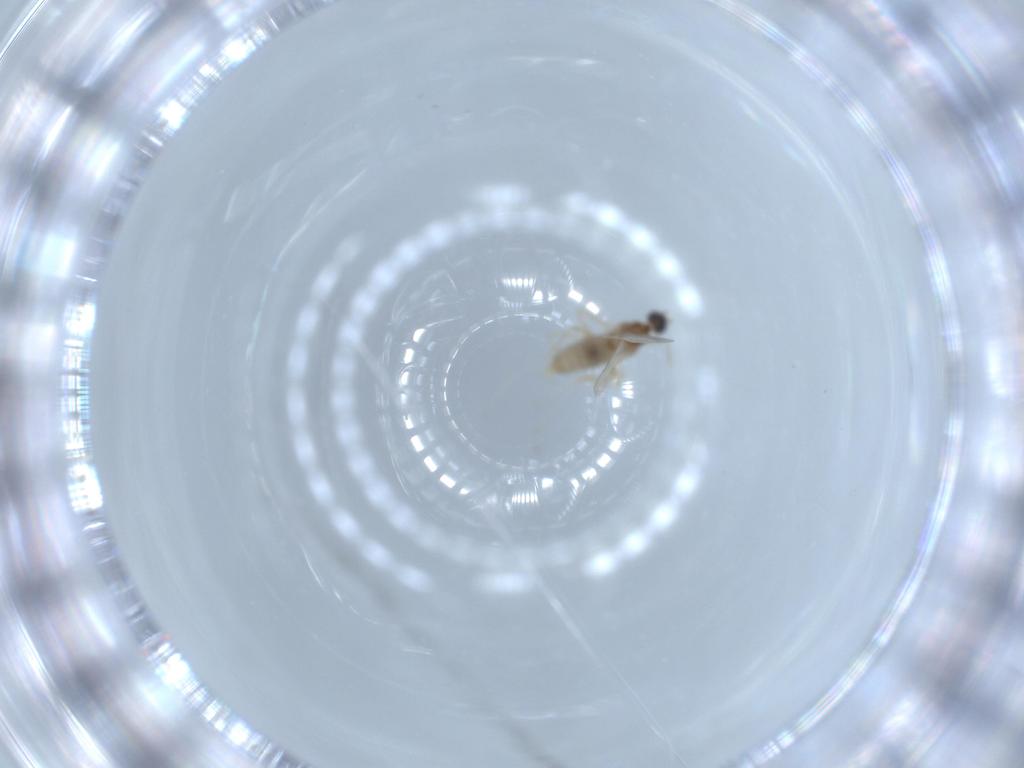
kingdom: Animalia
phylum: Arthropoda
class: Insecta
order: Diptera
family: Cecidomyiidae
